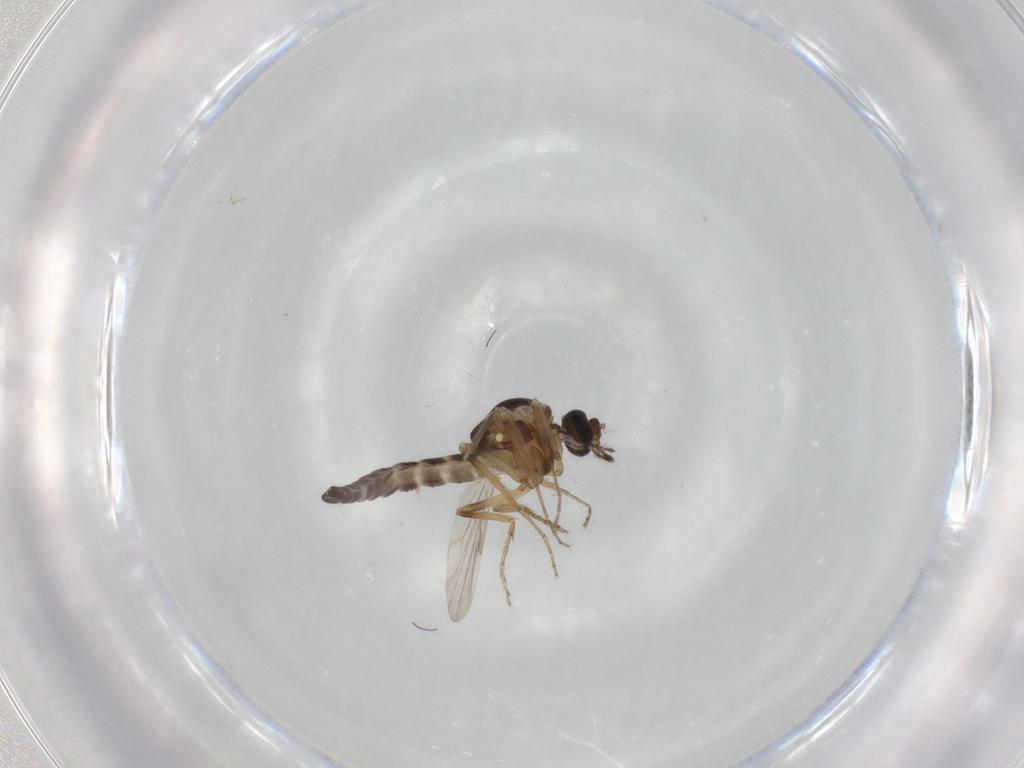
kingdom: Animalia
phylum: Arthropoda
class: Insecta
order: Diptera
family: Ceratopogonidae
